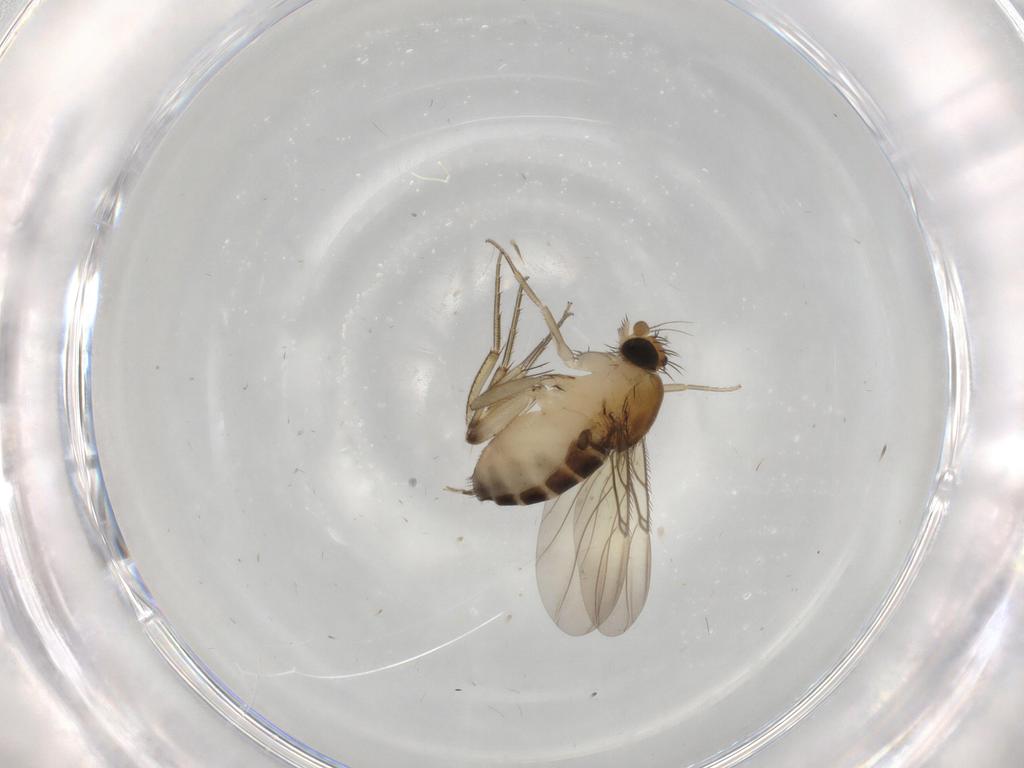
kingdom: Animalia
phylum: Arthropoda
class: Insecta
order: Diptera
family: Phoridae
